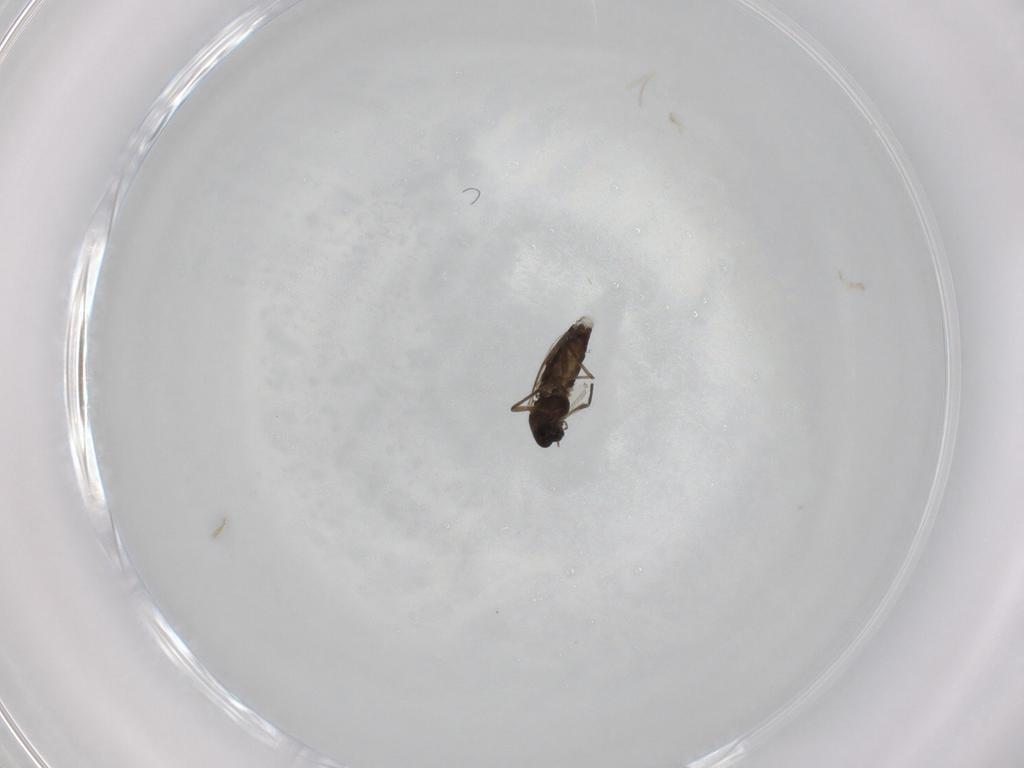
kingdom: Animalia
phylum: Arthropoda
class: Insecta
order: Diptera
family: Chironomidae
